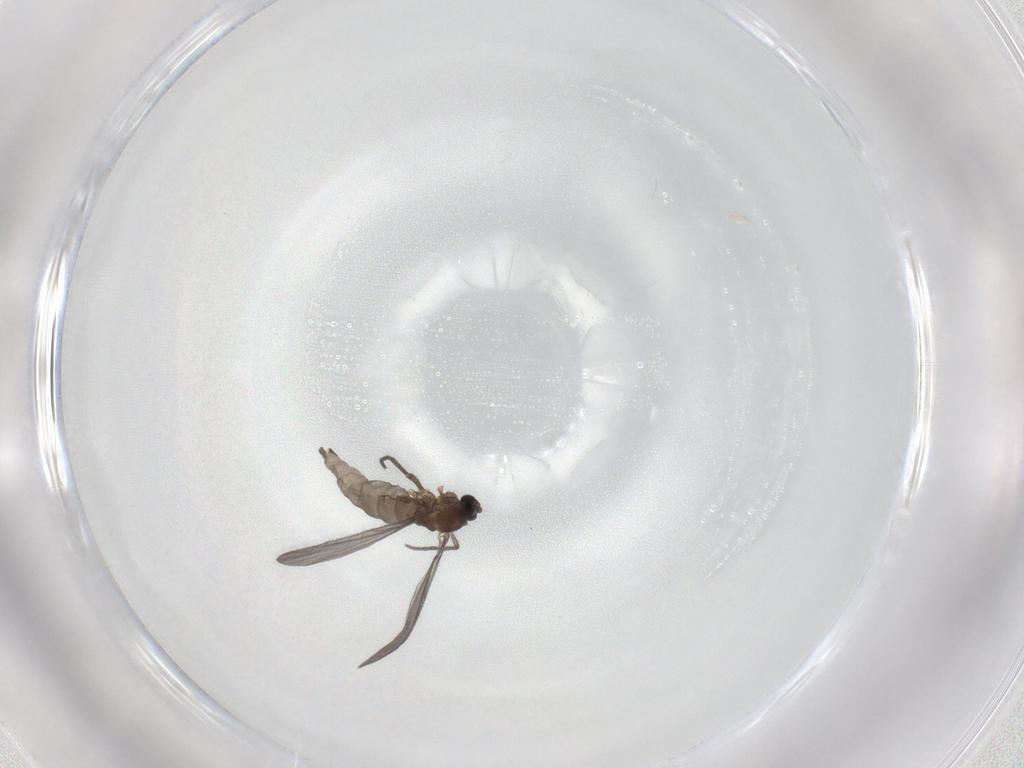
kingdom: Animalia
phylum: Arthropoda
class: Insecta
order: Diptera
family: Sciaridae
